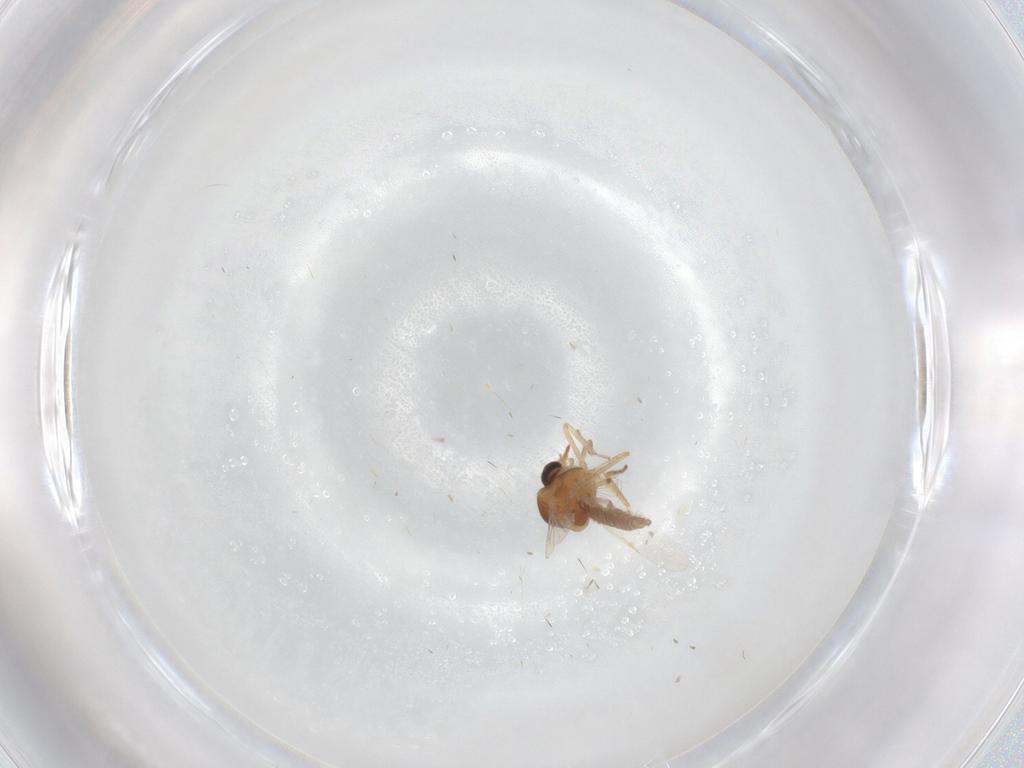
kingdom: Animalia
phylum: Arthropoda
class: Insecta
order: Diptera
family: Ceratopogonidae
